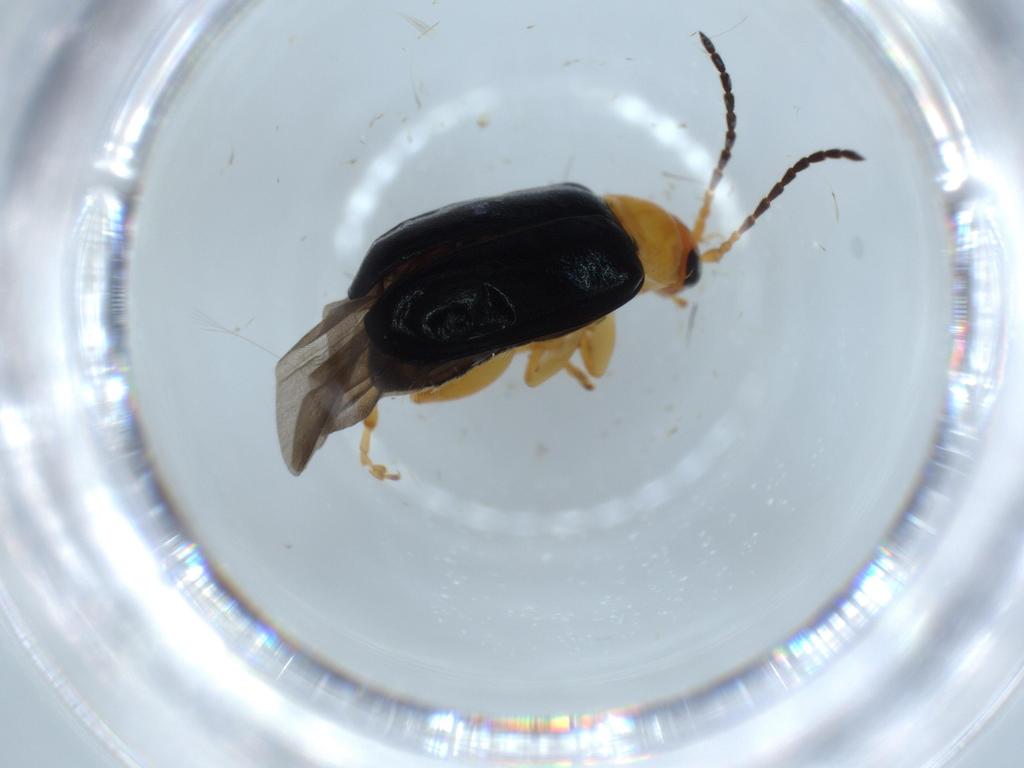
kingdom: Animalia
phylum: Arthropoda
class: Insecta
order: Coleoptera
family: Chrysomelidae
